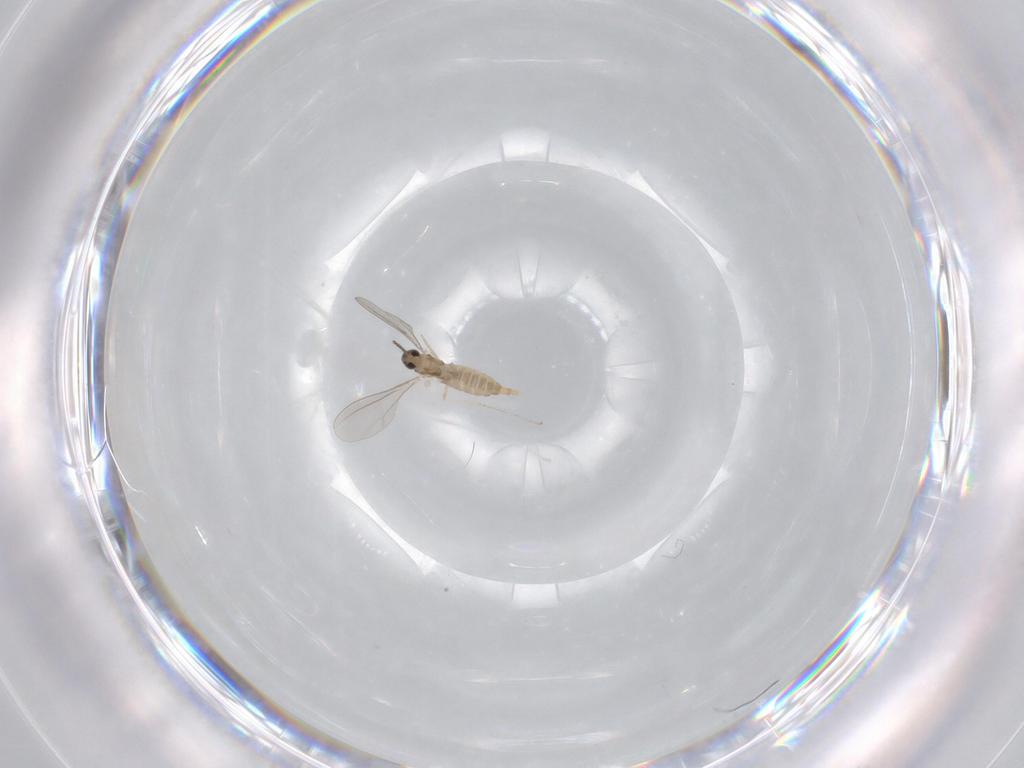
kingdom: Animalia
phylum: Arthropoda
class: Insecta
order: Diptera
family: Cecidomyiidae
